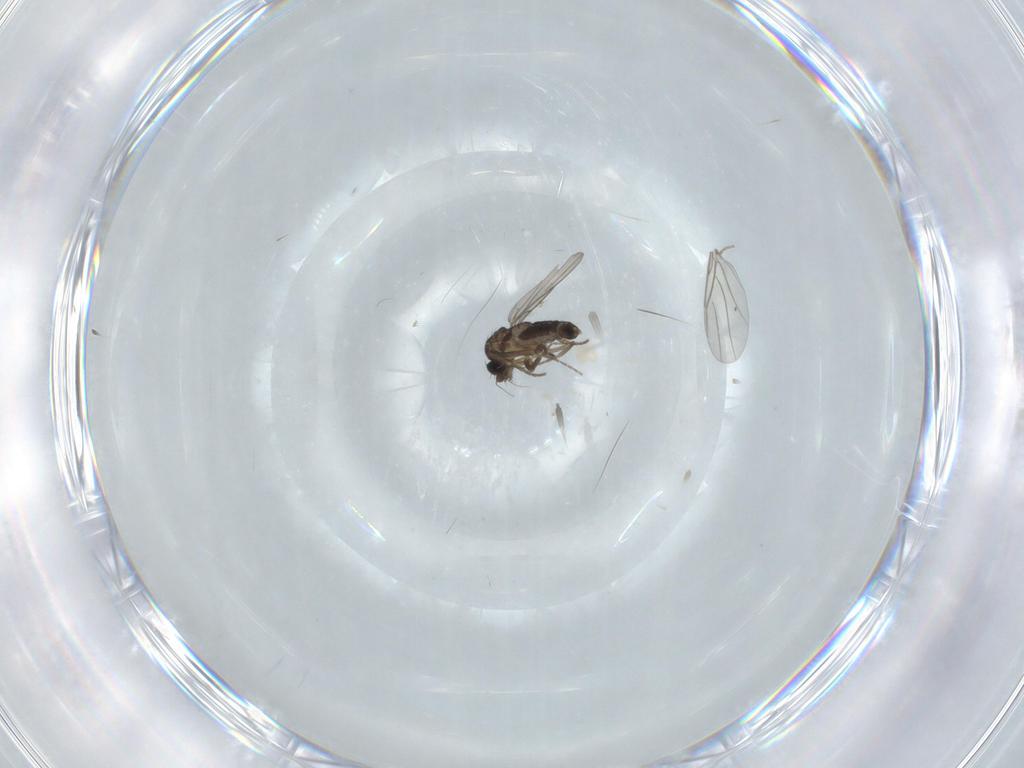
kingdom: Animalia
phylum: Arthropoda
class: Insecta
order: Diptera
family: Phoridae
